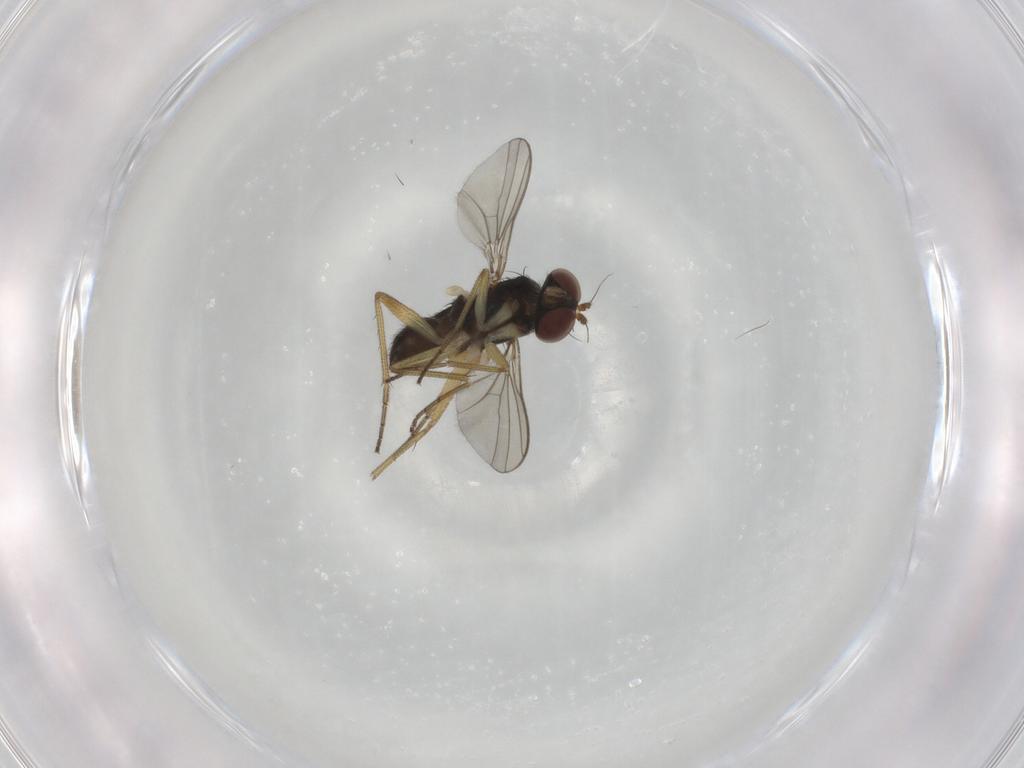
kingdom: Animalia
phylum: Arthropoda
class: Insecta
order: Diptera
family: Dolichopodidae
